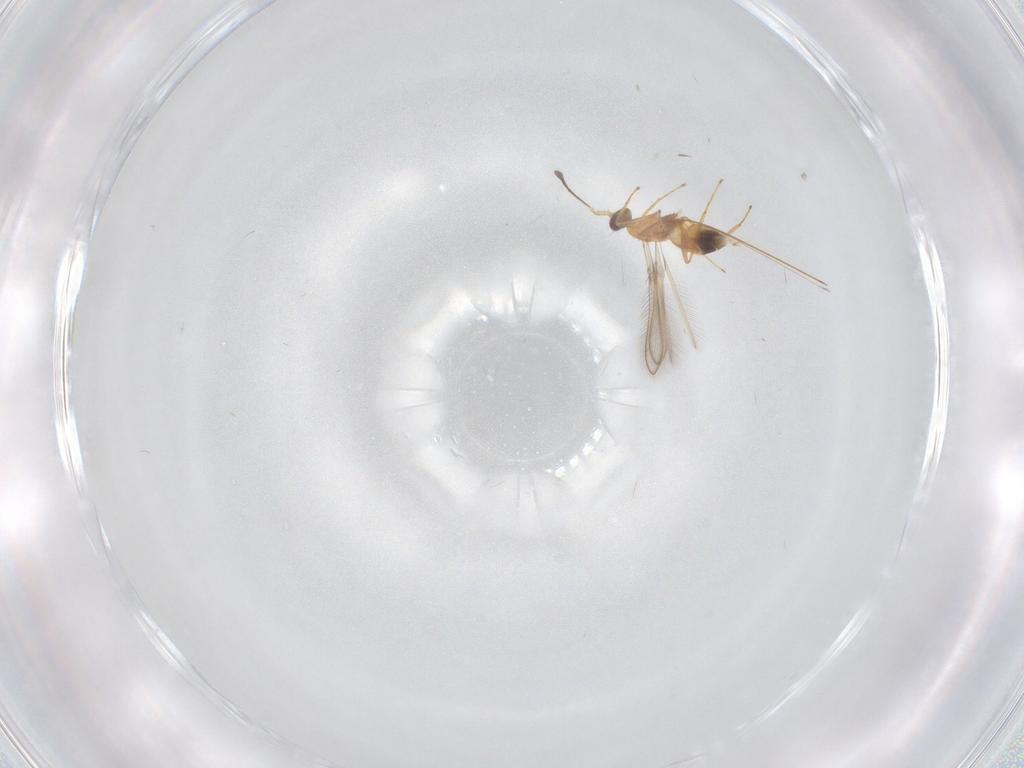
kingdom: Animalia
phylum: Arthropoda
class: Insecta
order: Hymenoptera
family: Mymaridae
